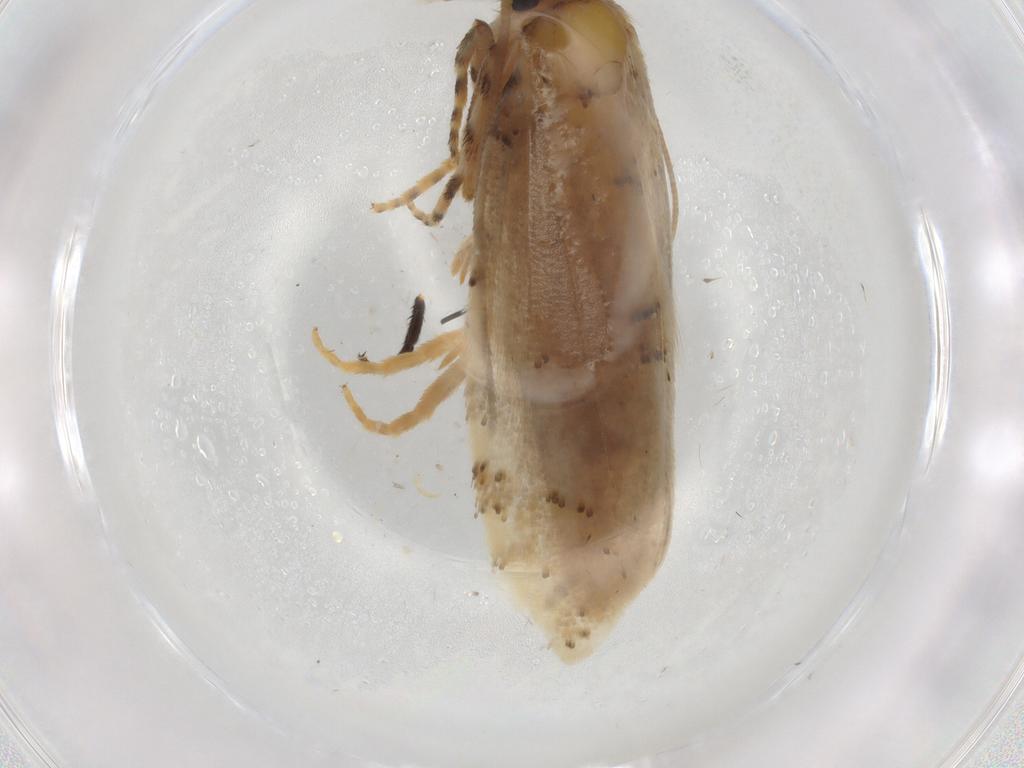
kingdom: Animalia
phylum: Arthropoda
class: Insecta
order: Lepidoptera
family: Tineidae
